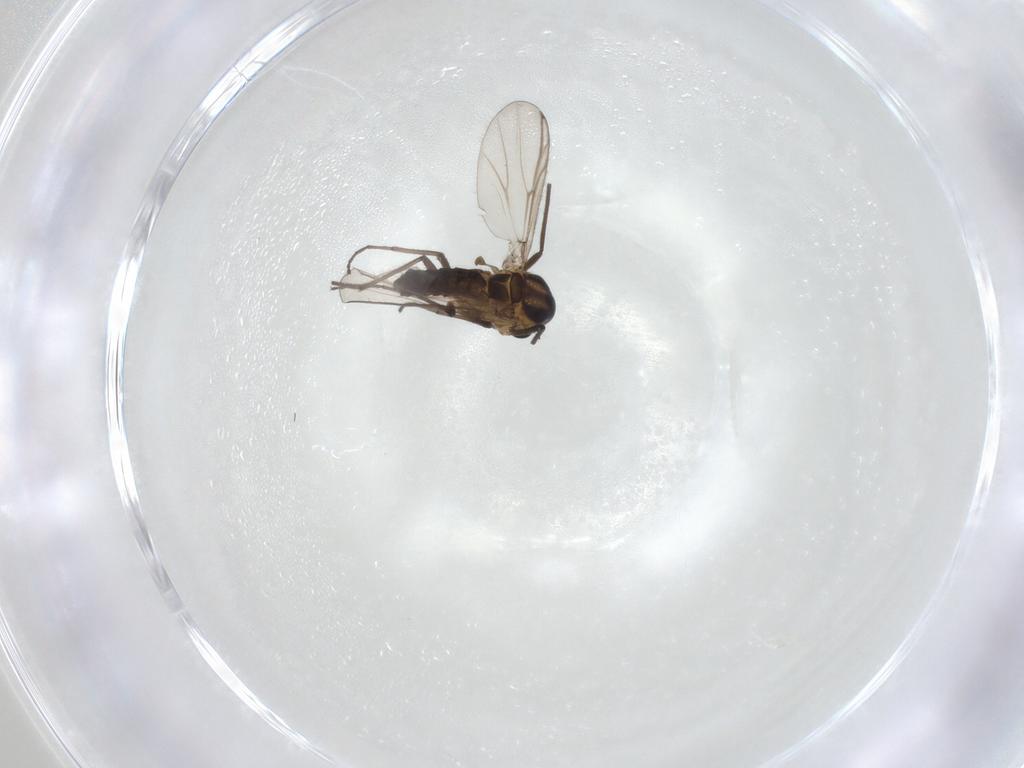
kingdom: Animalia
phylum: Arthropoda
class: Insecta
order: Diptera
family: Chironomidae
